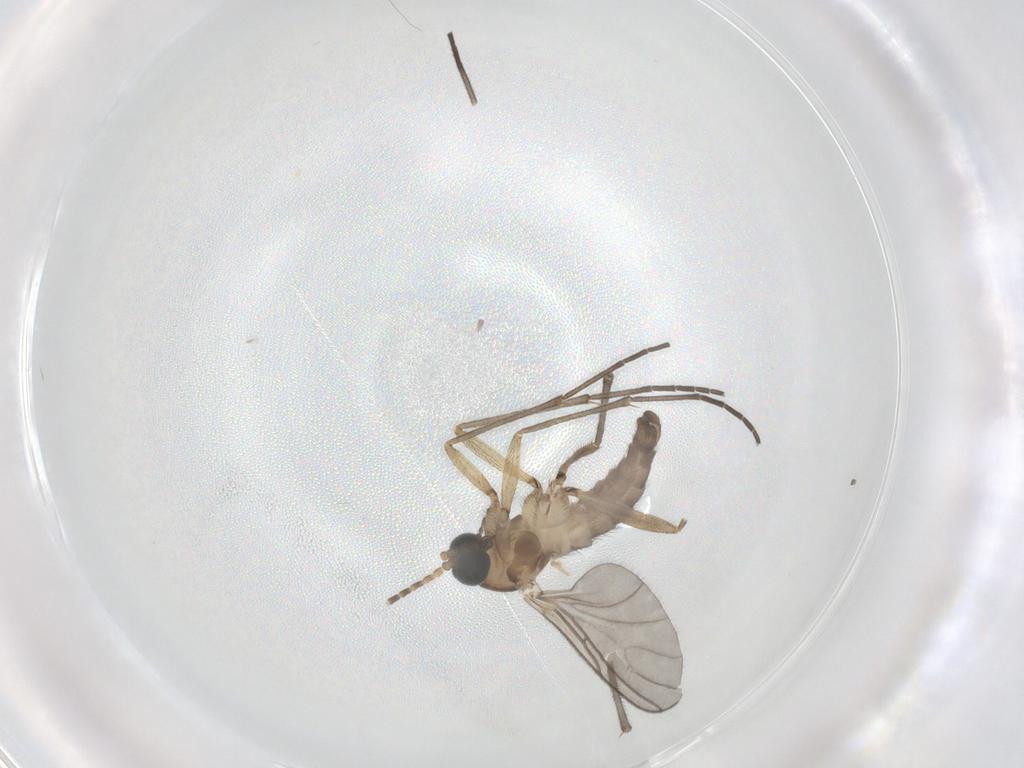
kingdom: Animalia
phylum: Arthropoda
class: Insecta
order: Diptera
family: Sciaridae
